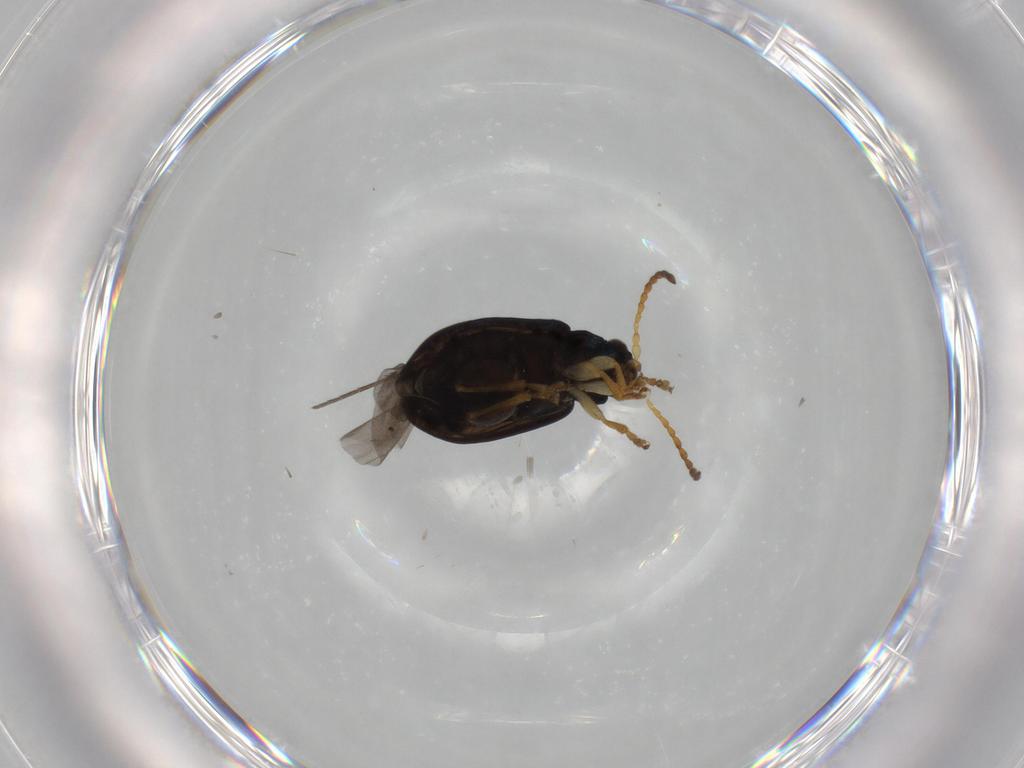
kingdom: Animalia
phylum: Arthropoda
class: Insecta
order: Coleoptera
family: Chrysomelidae
